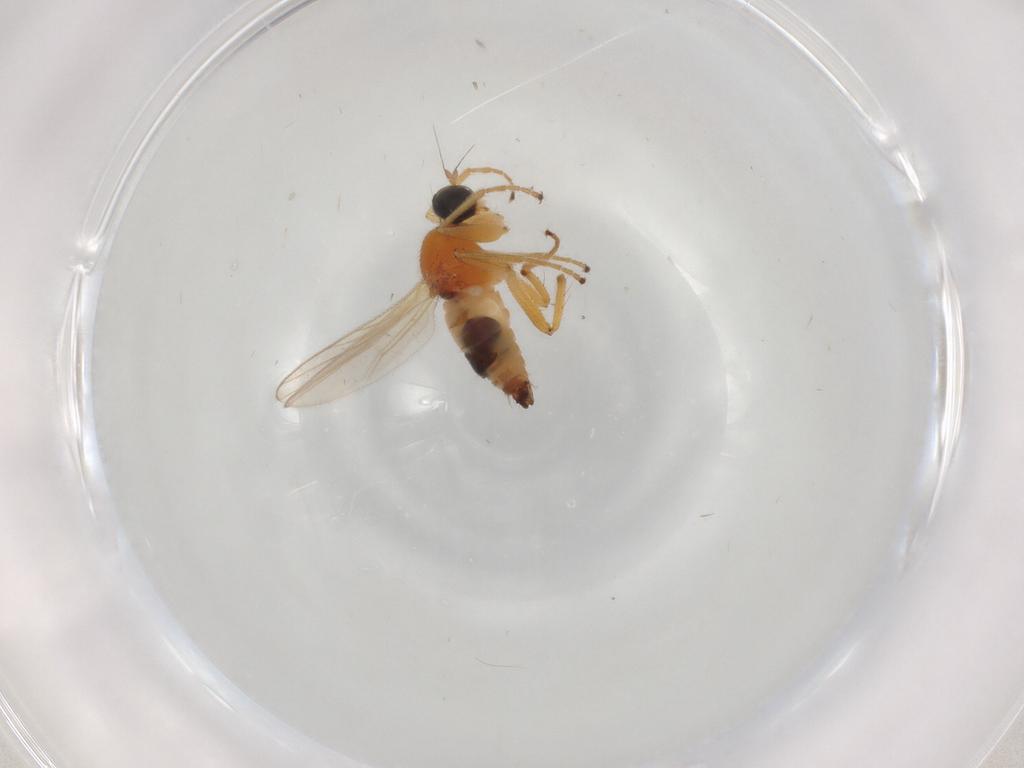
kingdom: Animalia
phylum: Arthropoda
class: Insecta
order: Diptera
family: Hybotidae
